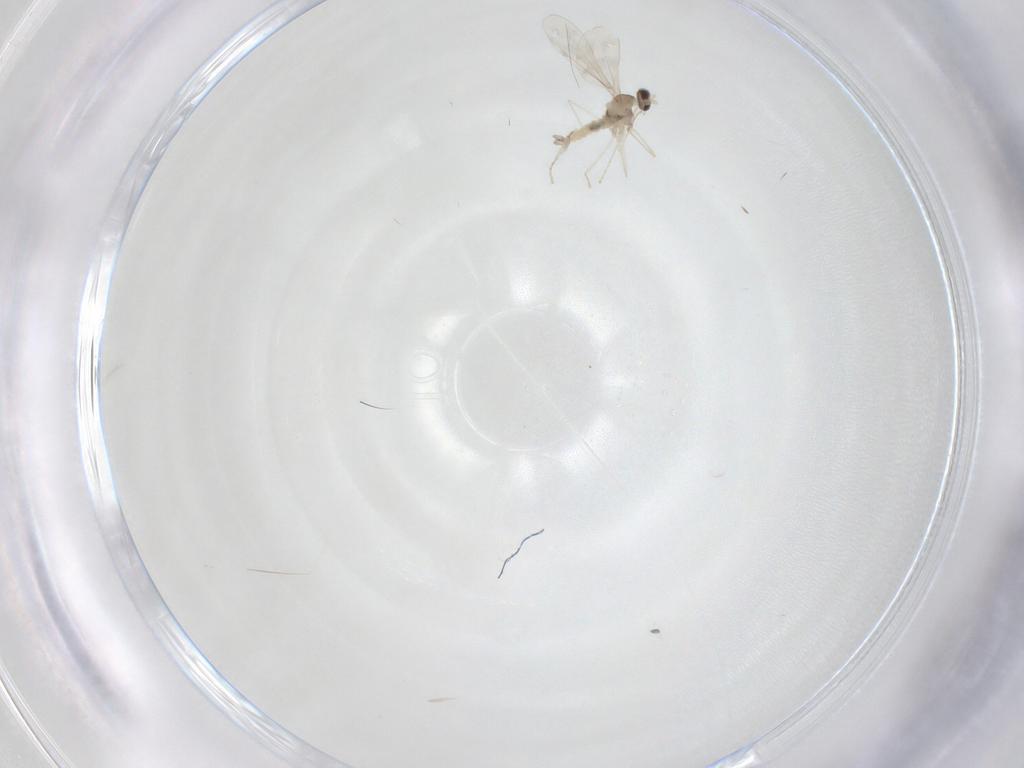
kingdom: Animalia
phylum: Arthropoda
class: Insecta
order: Diptera
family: Cecidomyiidae
